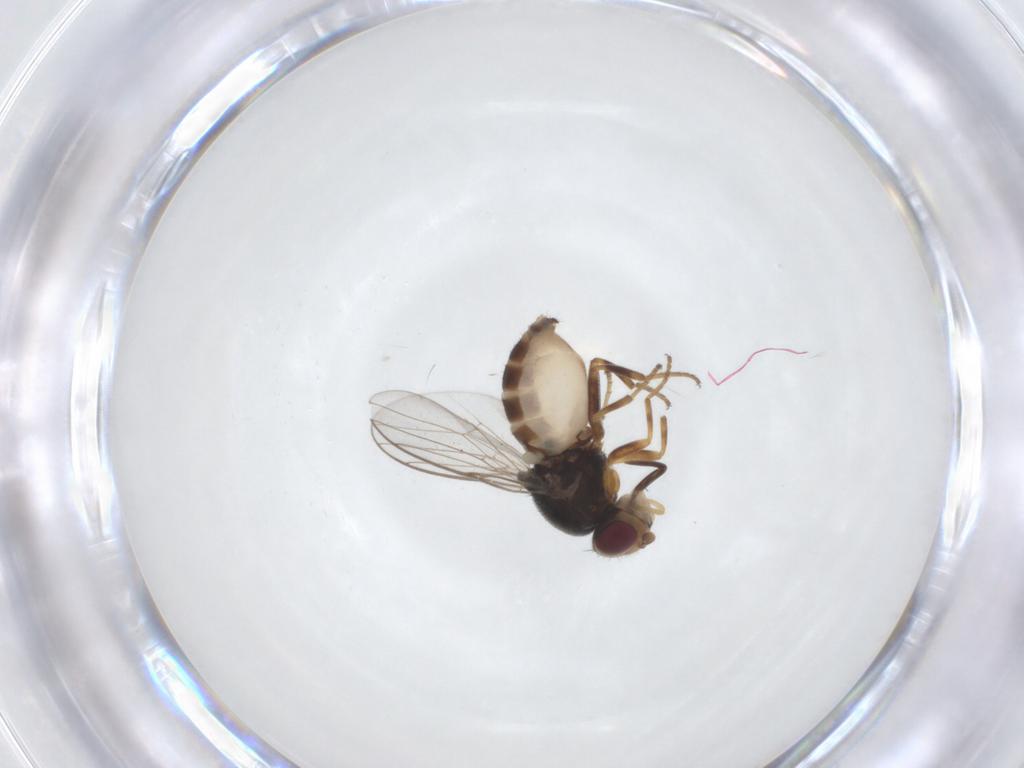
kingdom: Animalia
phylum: Arthropoda
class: Insecta
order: Diptera
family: Chloropidae
